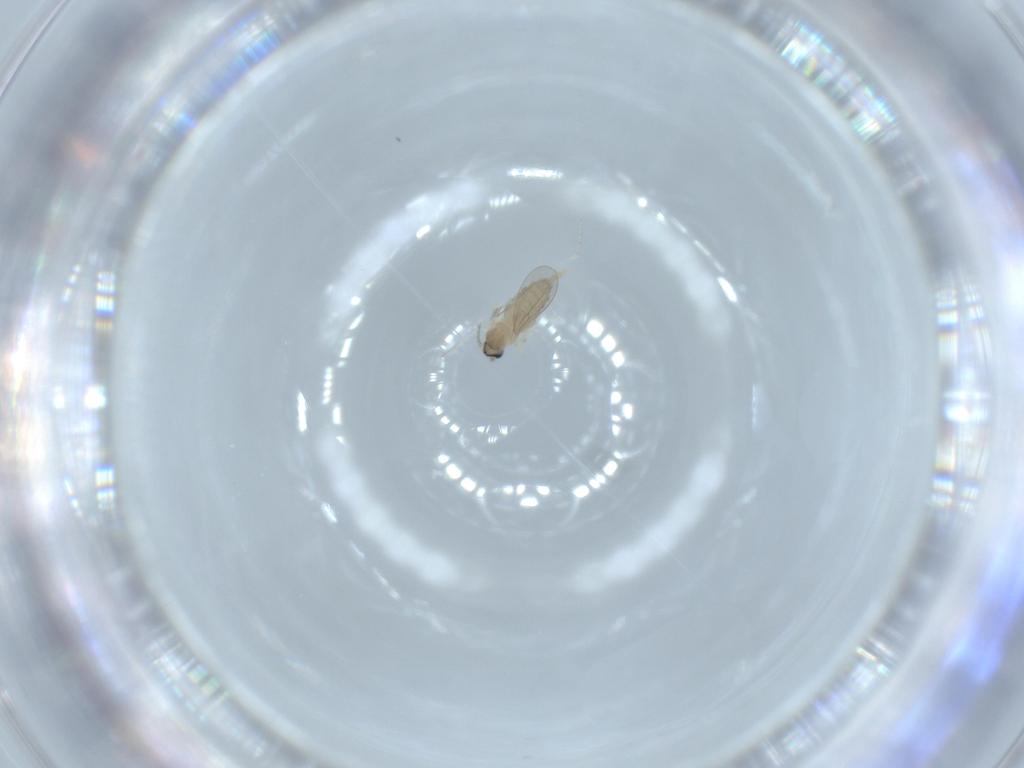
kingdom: Animalia
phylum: Arthropoda
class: Insecta
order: Diptera
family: Cecidomyiidae
